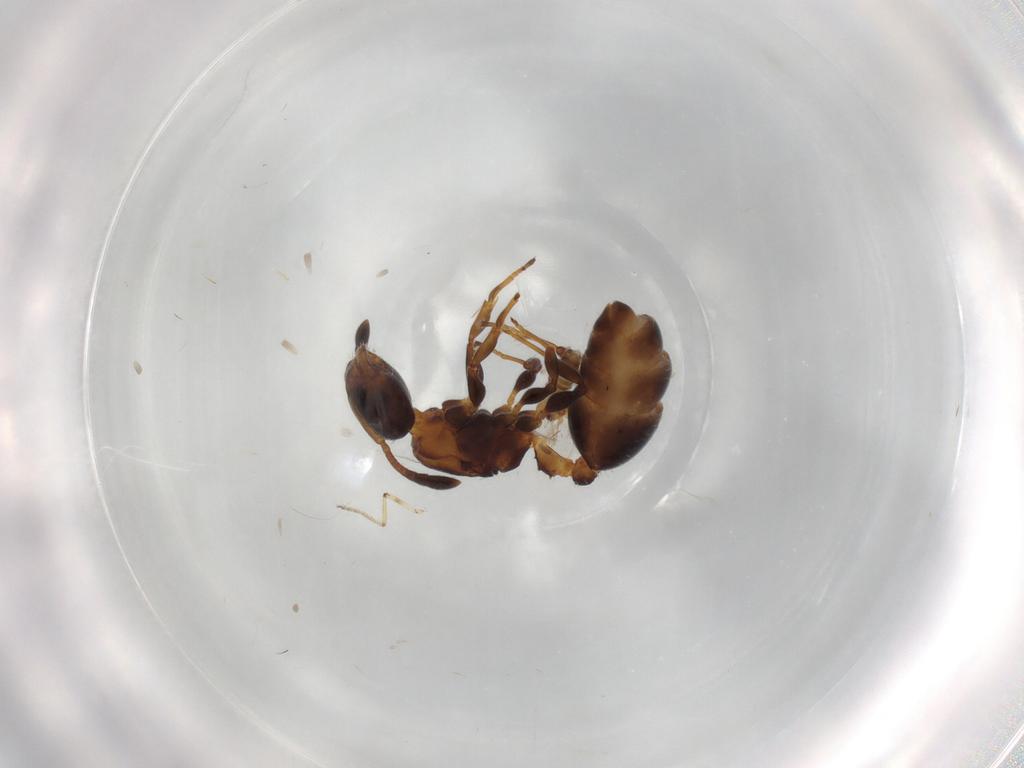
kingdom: Animalia
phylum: Arthropoda
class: Insecta
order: Hymenoptera
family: Aphelinidae
